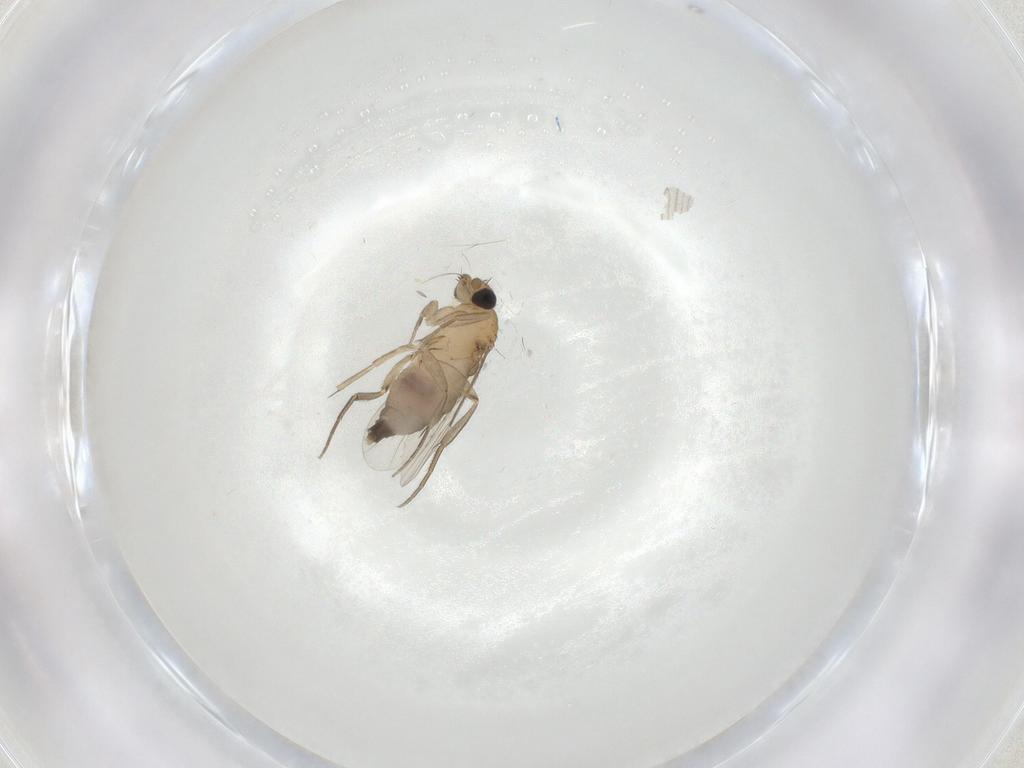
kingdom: Animalia
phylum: Arthropoda
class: Insecta
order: Diptera
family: Phoridae
